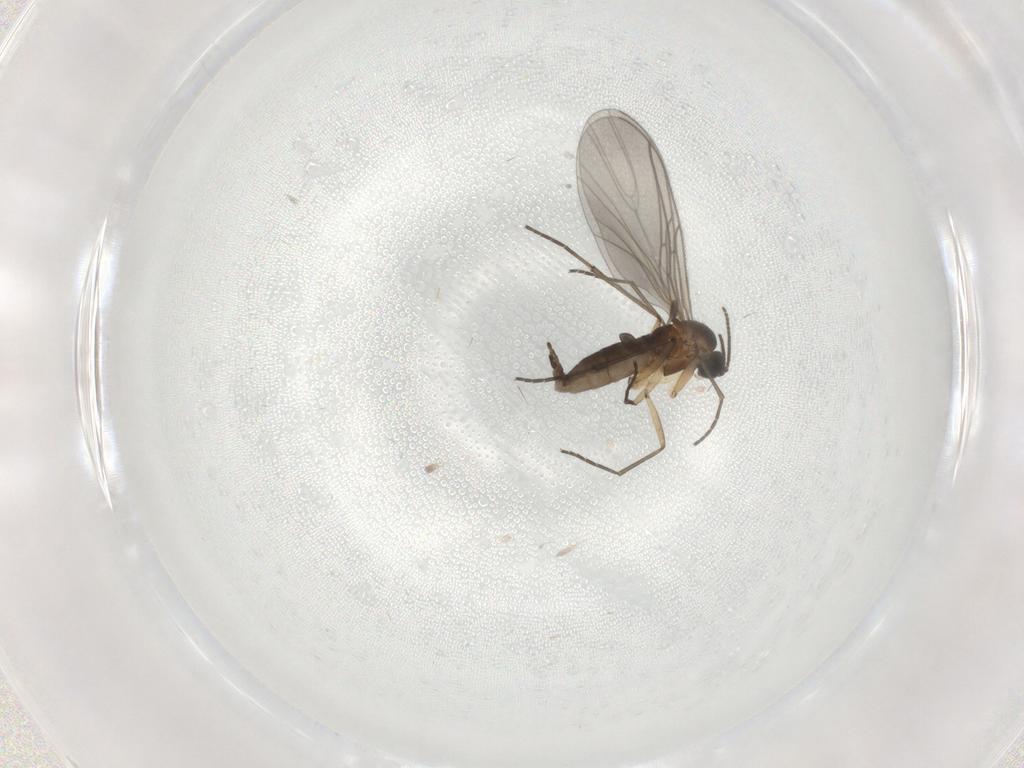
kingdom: Animalia
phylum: Arthropoda
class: Insecta
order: Diptera
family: Sciaridae
